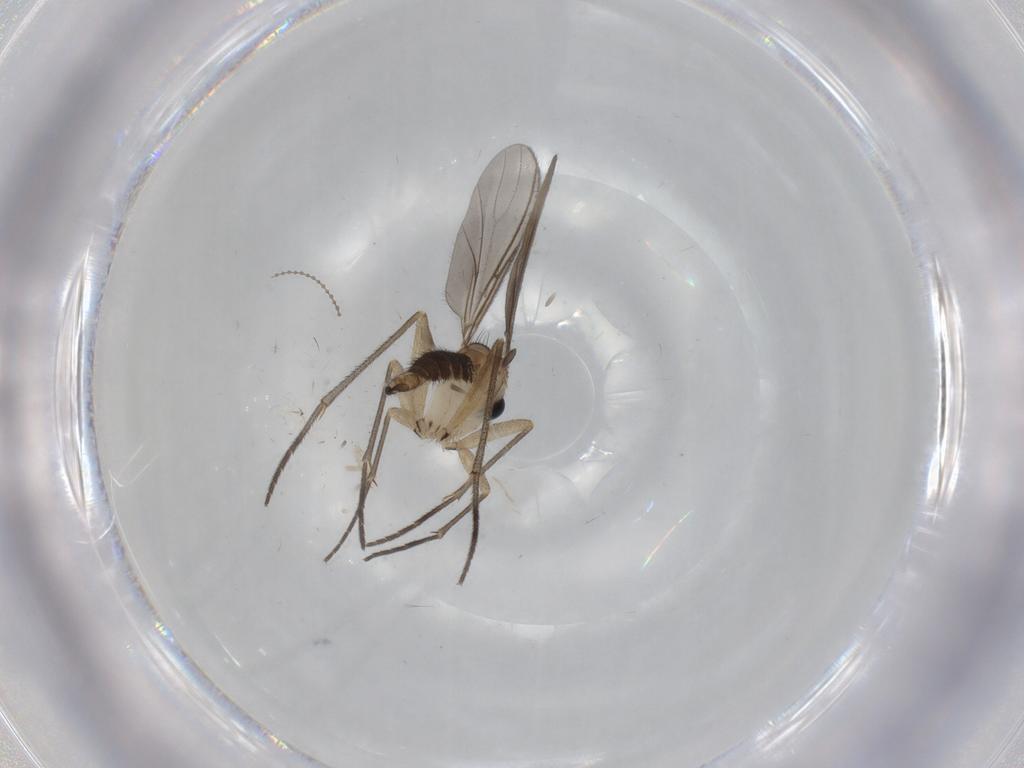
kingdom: Animalia
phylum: Arthropoda
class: Insecta
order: Diptera
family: Sciaridae
